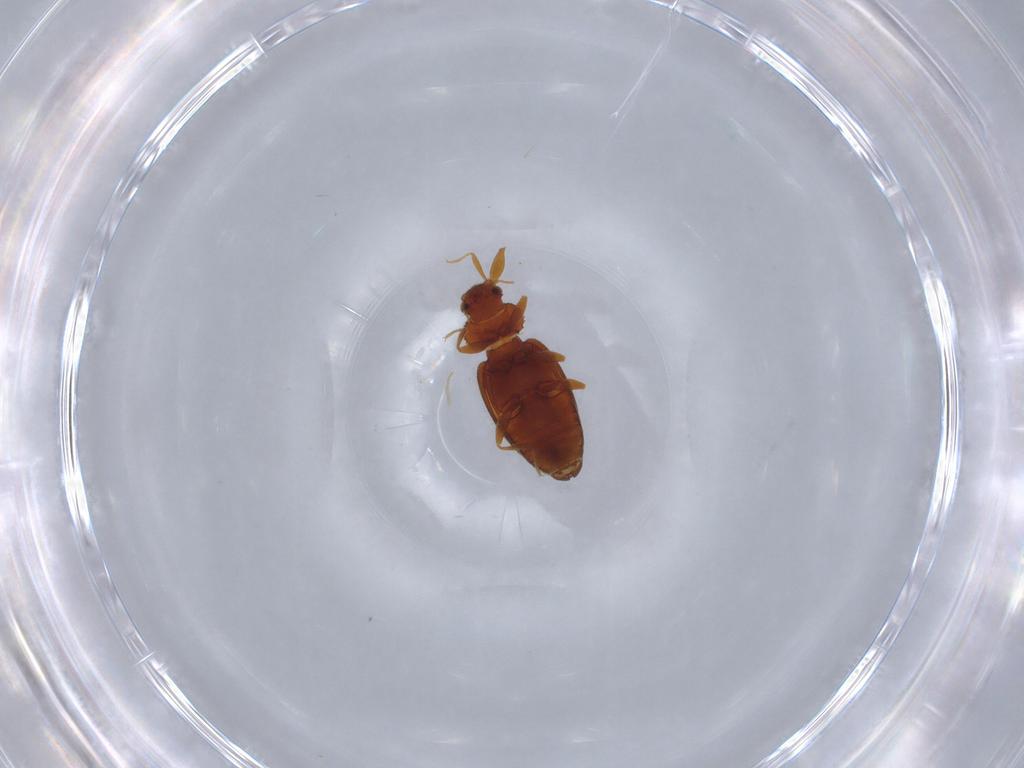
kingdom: Animalia
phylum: Arthropoda
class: Insecta
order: Coleoptera
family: Latridiidae
